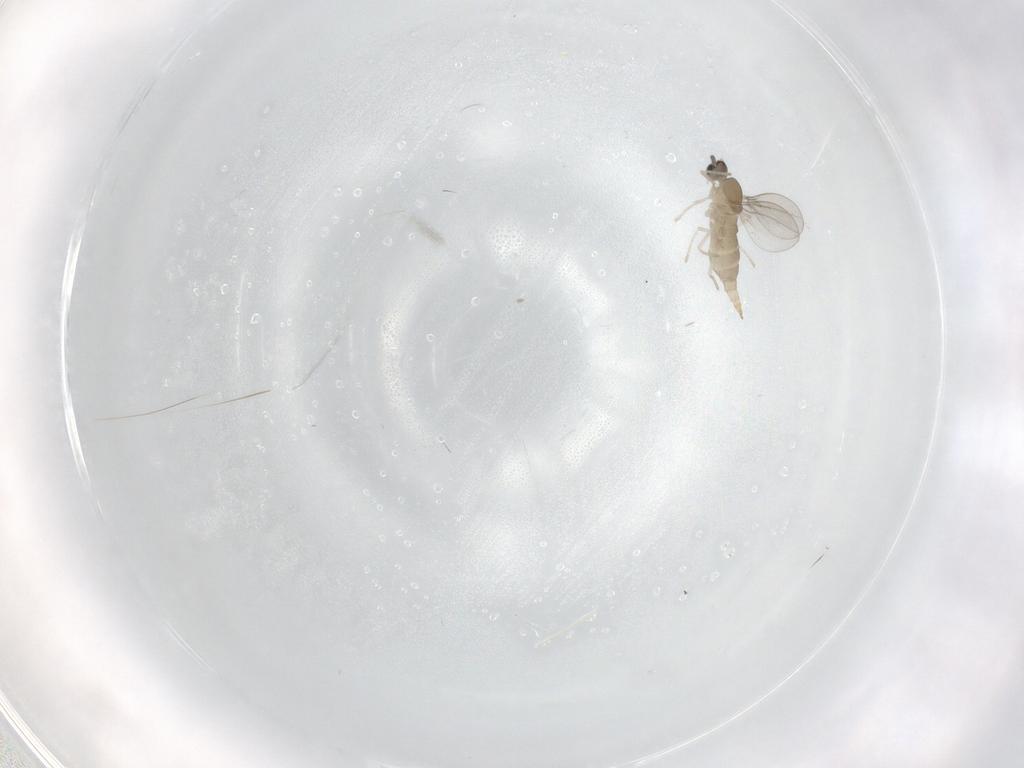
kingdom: Animalia
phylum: Arthropoda
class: Insecta
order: Diptera
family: Cecidomyiidae
